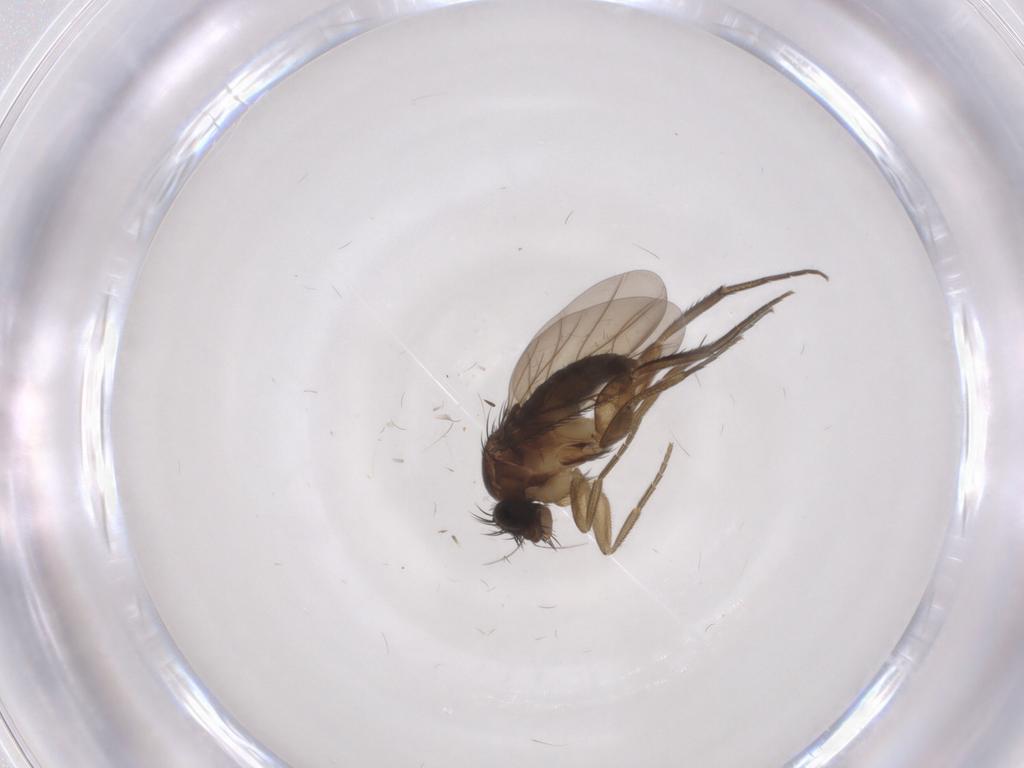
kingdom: Animalia
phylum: Arthropoda
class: Insecta
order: Diptera
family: Phoridae
